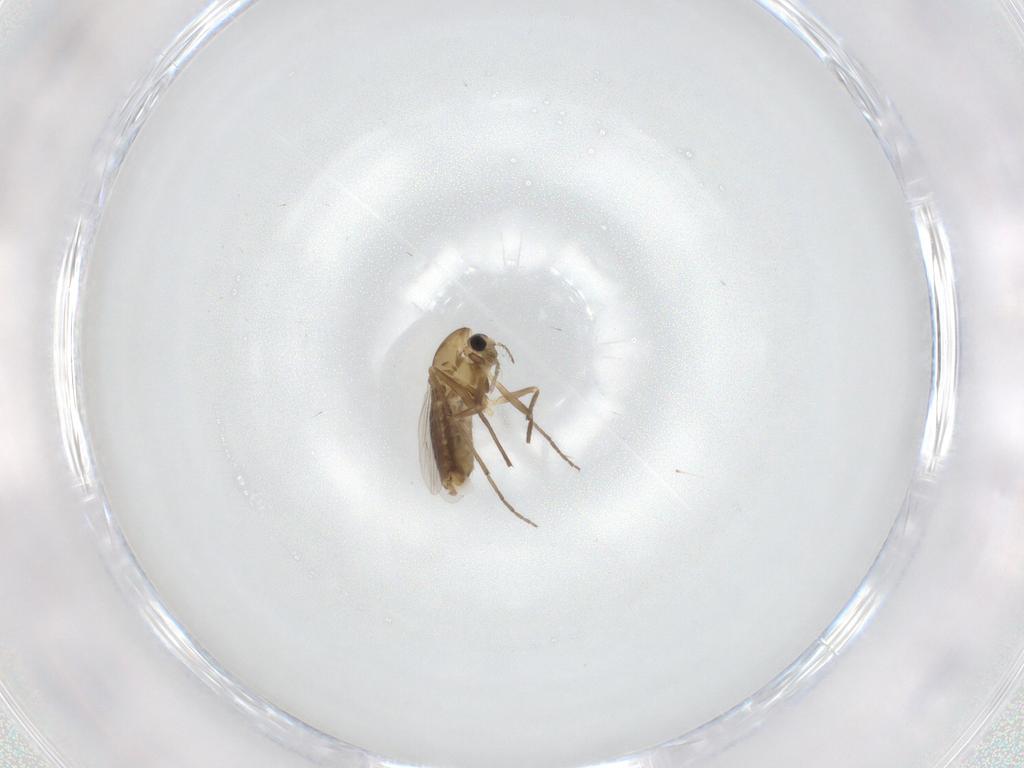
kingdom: Animalia
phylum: Arthropoda
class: Insecta
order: Diptera
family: Chironomidae
